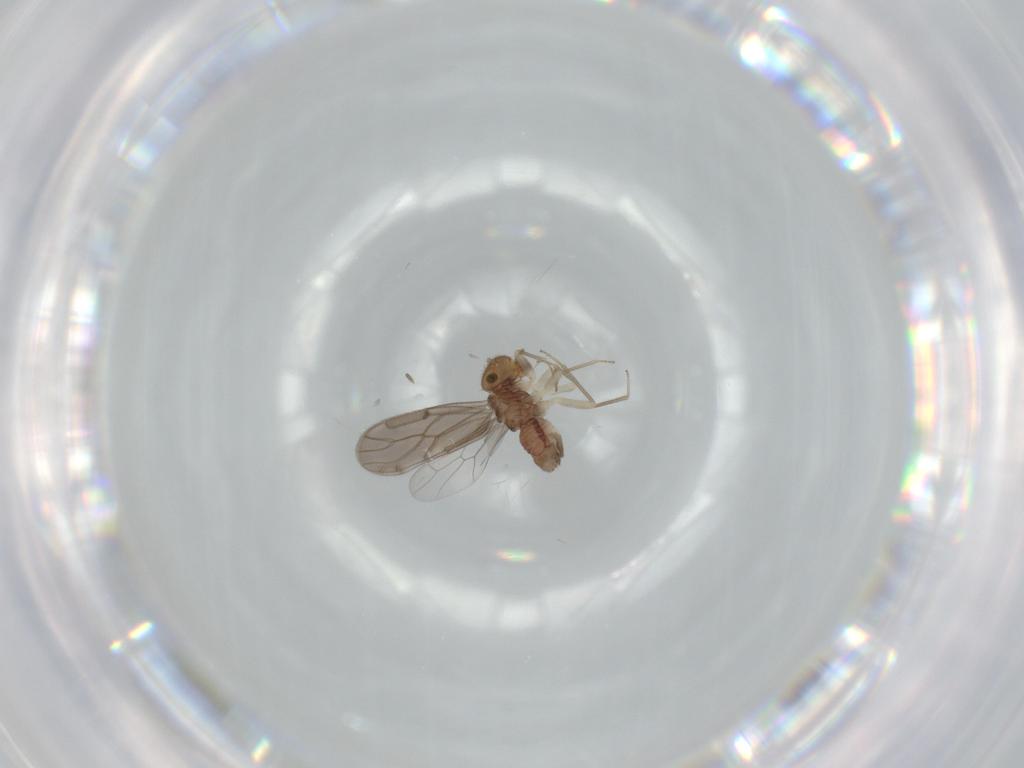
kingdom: Animalia
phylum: Arthropoda
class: Insecta
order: Psocodea
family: Ectopsocidae
